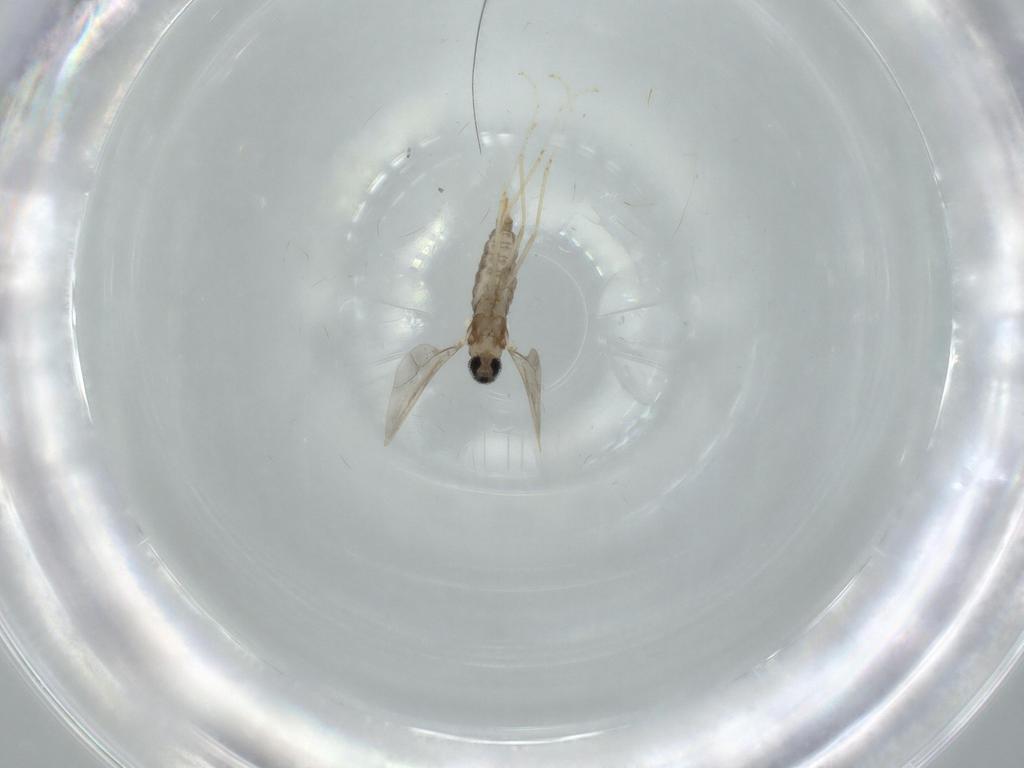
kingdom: Animalia
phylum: Arthropoda
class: Insecta
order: Diptera
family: Cecidomyiidae
